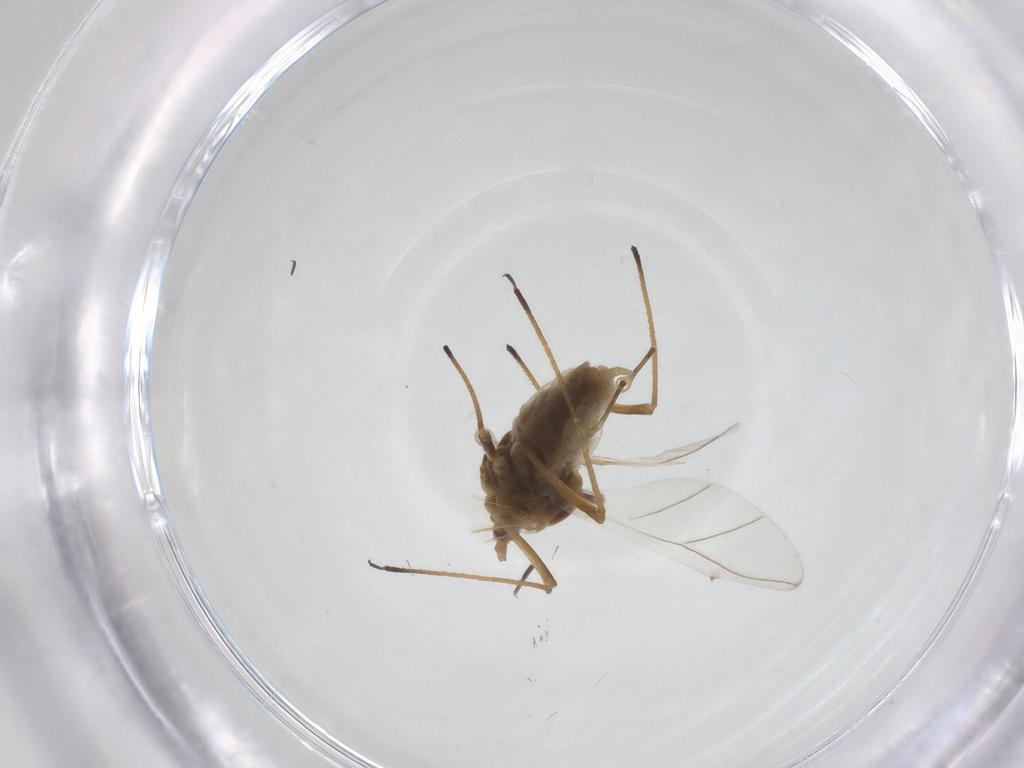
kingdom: Animalia
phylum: Arthropoda
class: Insecta
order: Hemiptera
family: Aphididae
